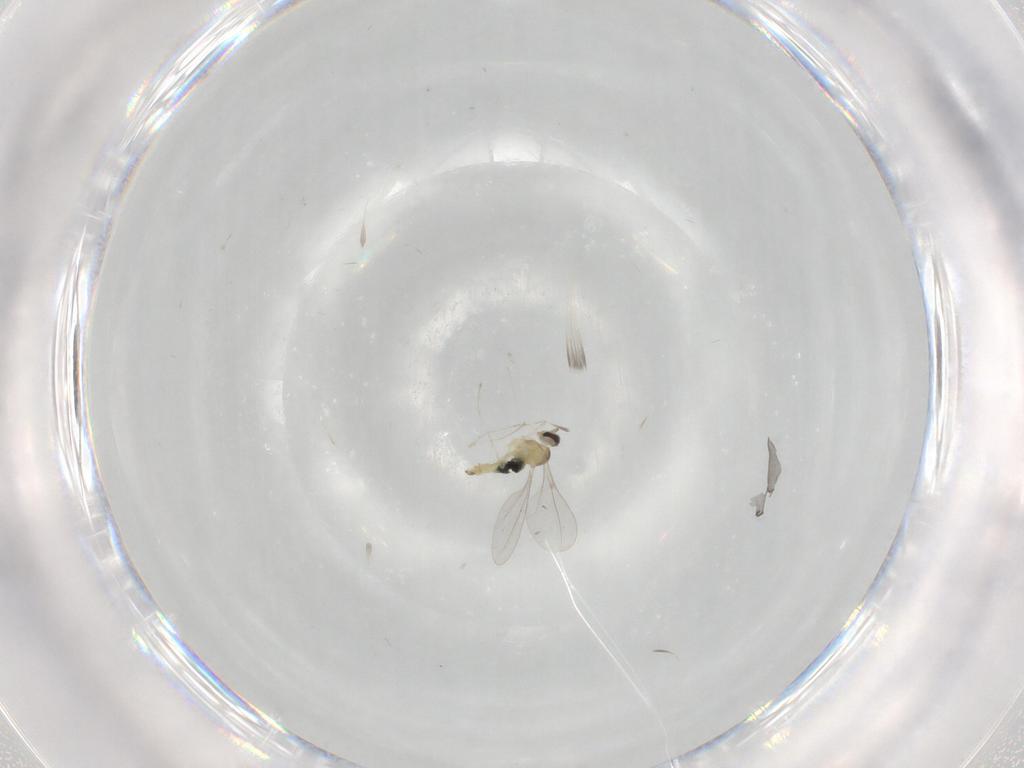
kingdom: Animalia
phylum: Arthropoda
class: Insecta
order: Diptera
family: Cecidomyiidae
